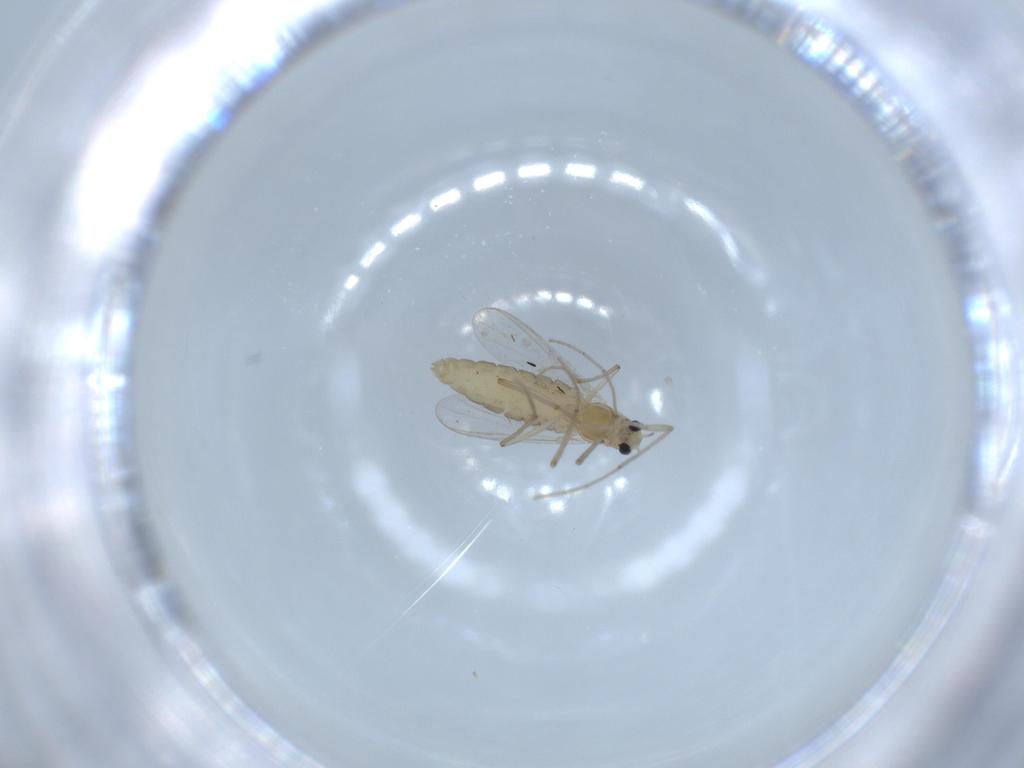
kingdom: Animalia
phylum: Arthropoda
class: Insecta
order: Diptera
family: Chironomidae
